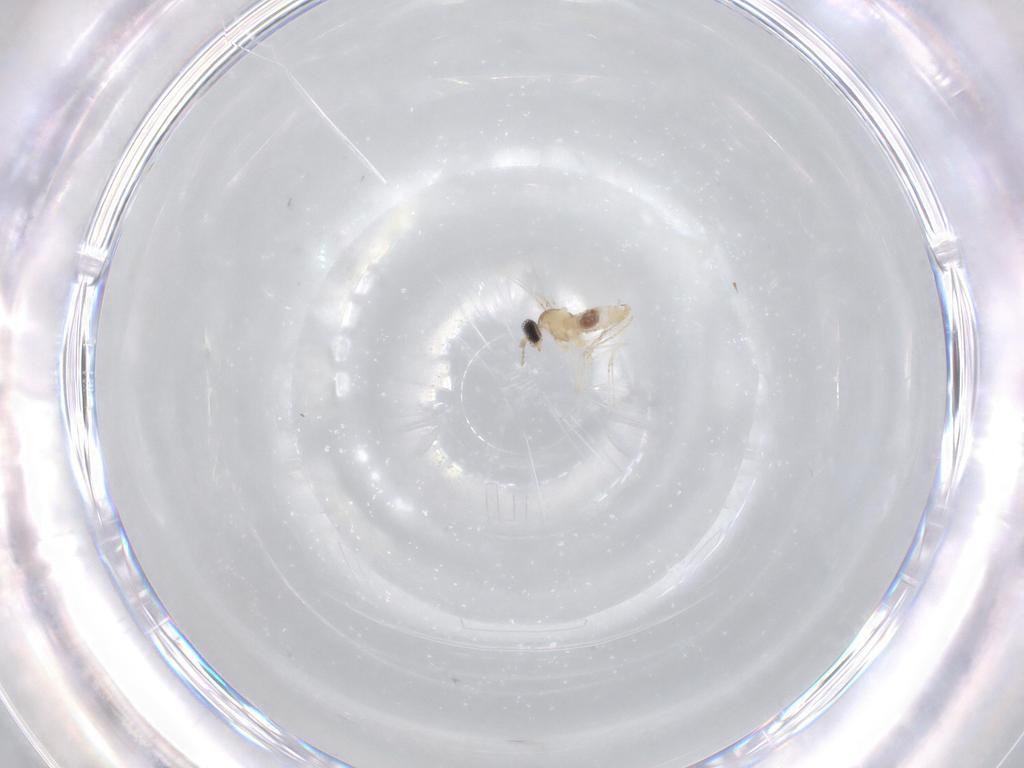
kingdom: Animalia
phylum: Arthropoda
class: Insecta
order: Diptera
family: Cecidomyiidae
